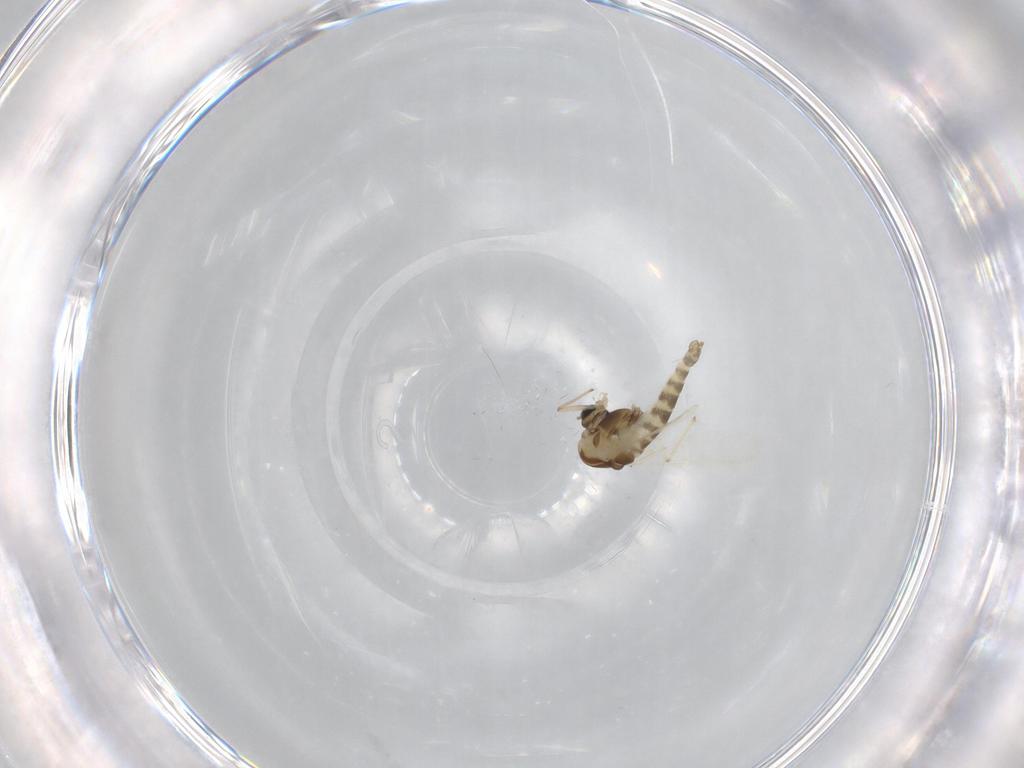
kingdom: Animalia
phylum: Arthropoda
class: Insecta
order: Diptera
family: Chironomidae
